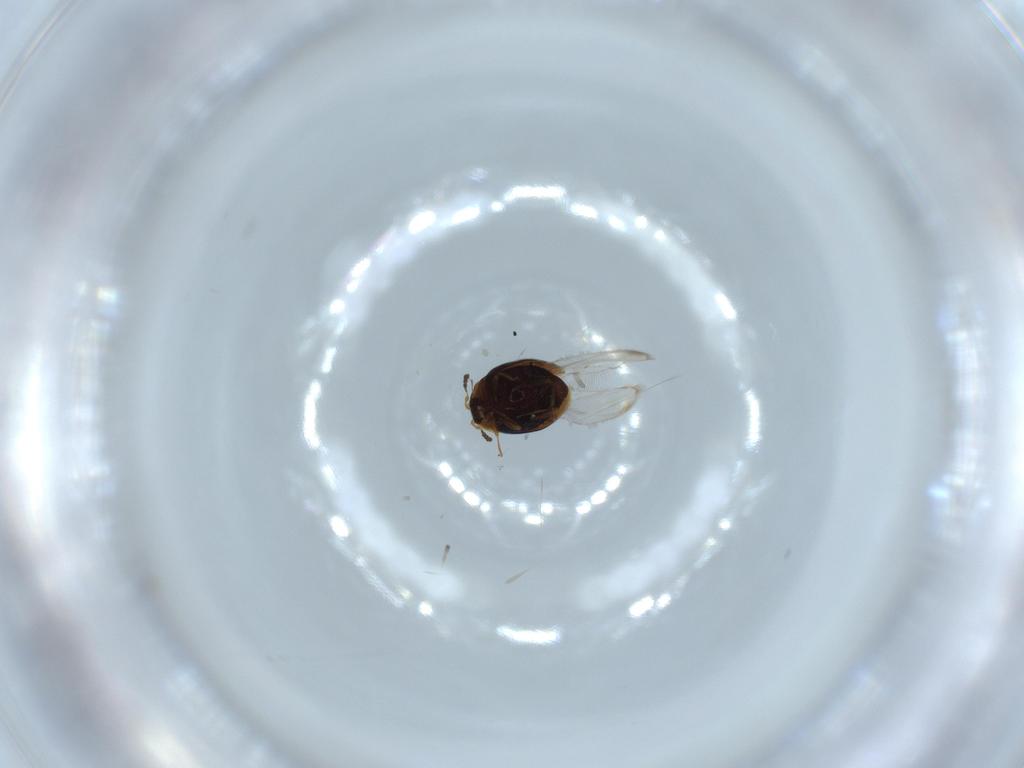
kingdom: Animalia
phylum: Arthropoda
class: Insecta
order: Coleoptera
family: Corylophidae
